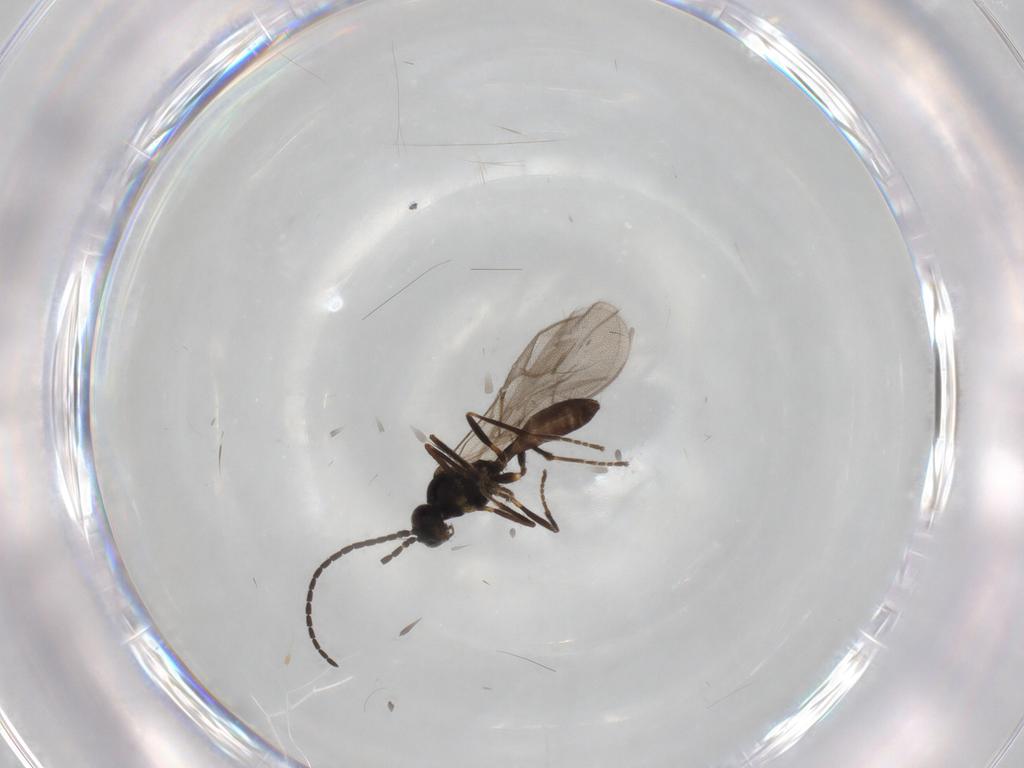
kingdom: Animalia
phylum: Arthropoda
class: Insecta
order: Hymenoptera
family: Braconidae
